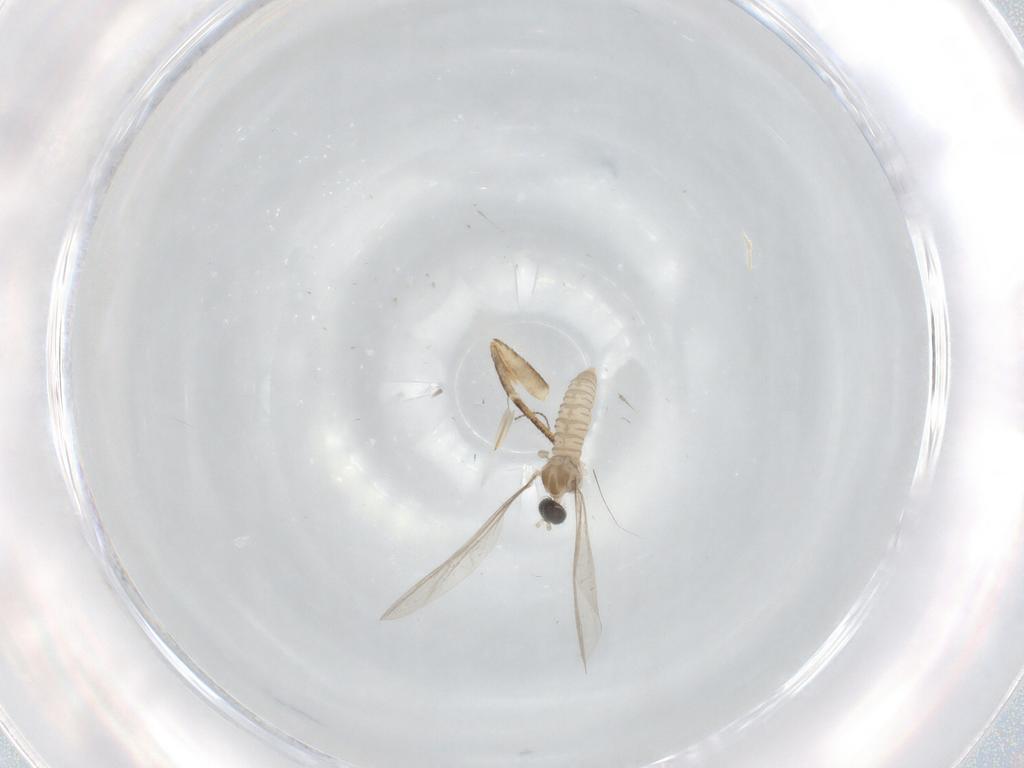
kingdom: Animalia
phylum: Arthropoda
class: Insecta
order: Diptera
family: Cecidomyiidae
